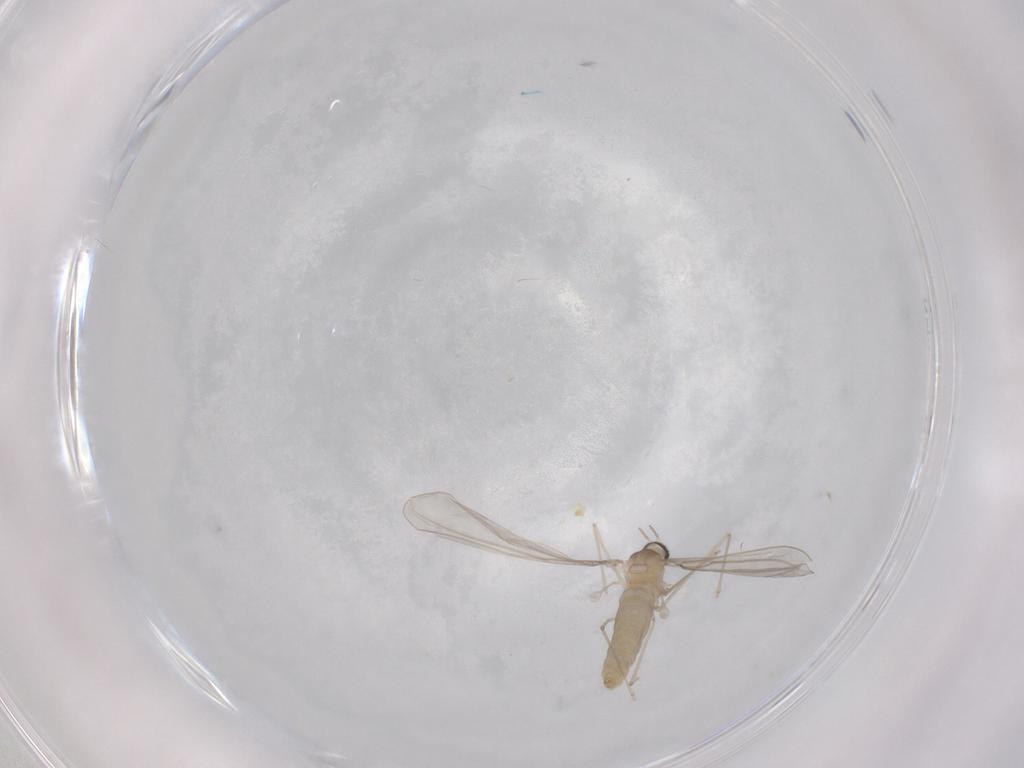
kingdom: Animalia
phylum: Arthropoda
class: Insecta
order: Diptera
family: Cecidomyiidae
